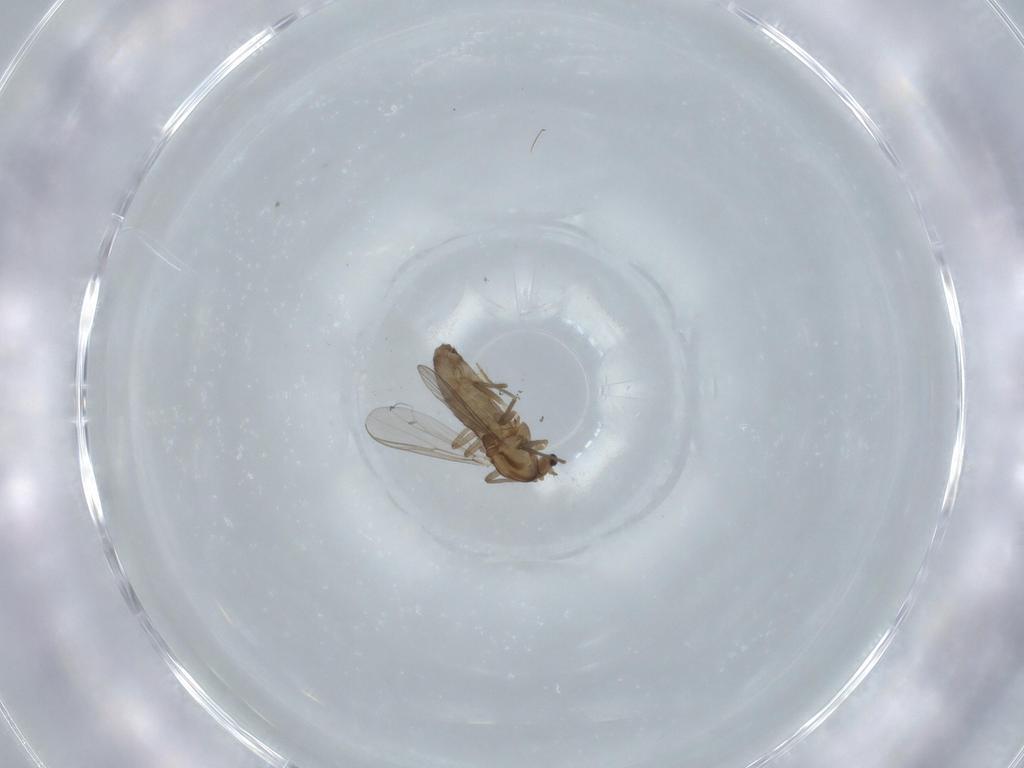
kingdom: Animalia
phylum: Arthropoda
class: Insecta
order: Diptera
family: Chironomidae
